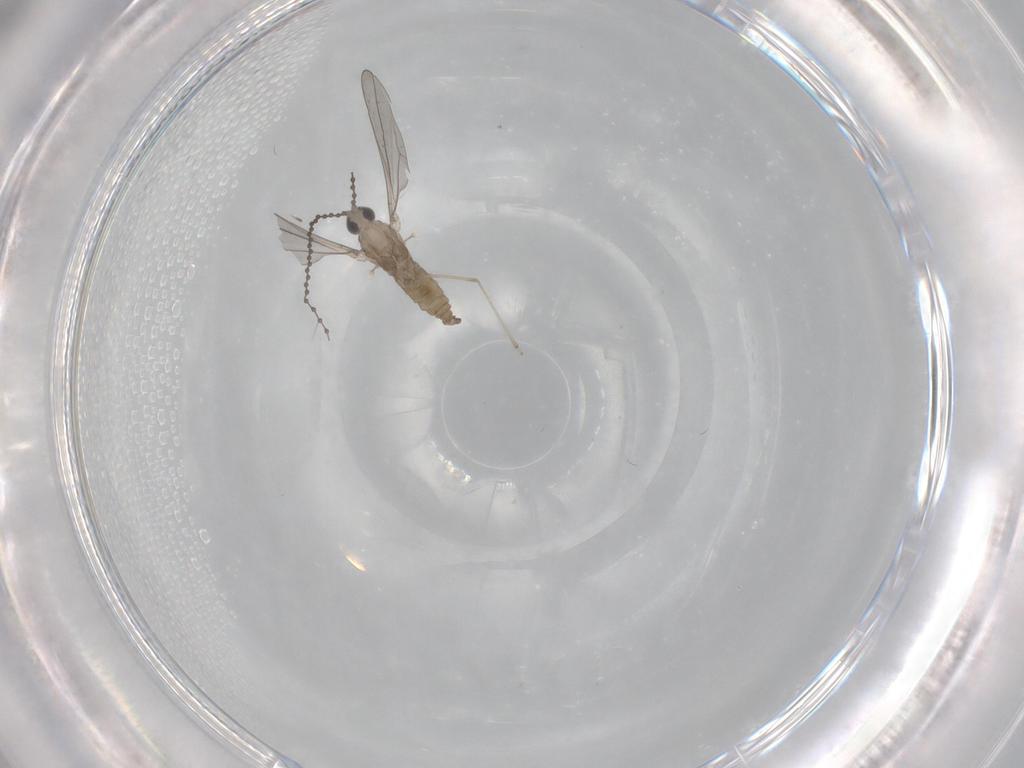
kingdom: Animalia
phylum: Arthropoda
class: Insecta
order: Diptera
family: Cecidomyiidae
